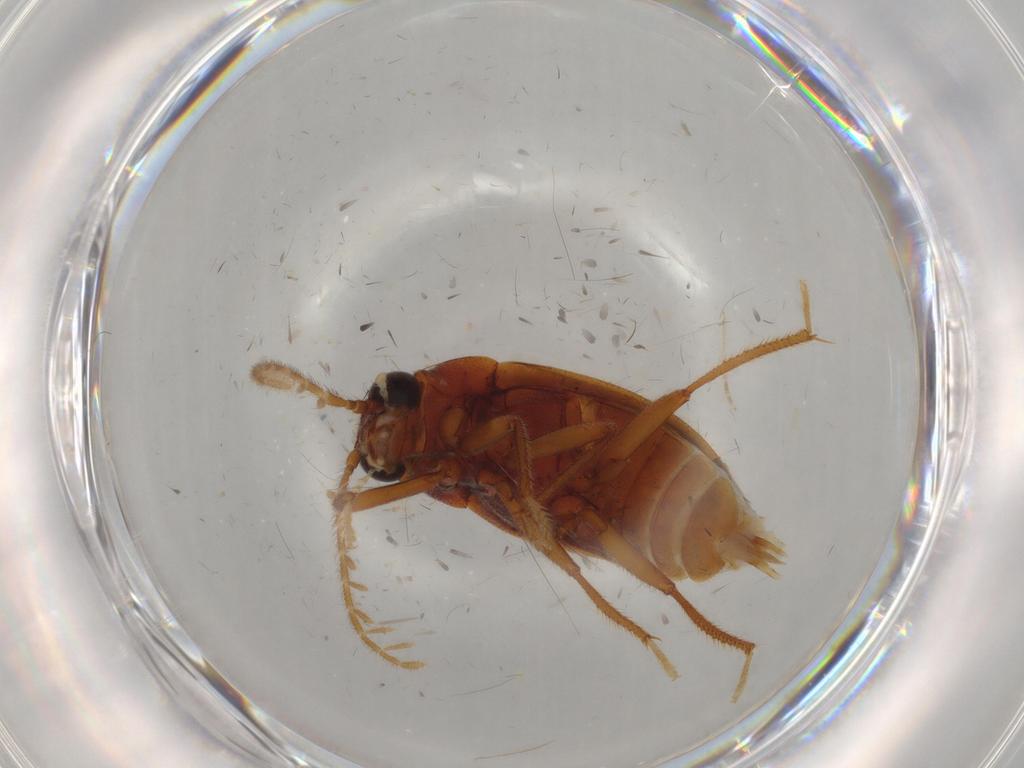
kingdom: Animalia
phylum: Arthropoda
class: Insecta
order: Coleoptera
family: Ptilodactylidae
